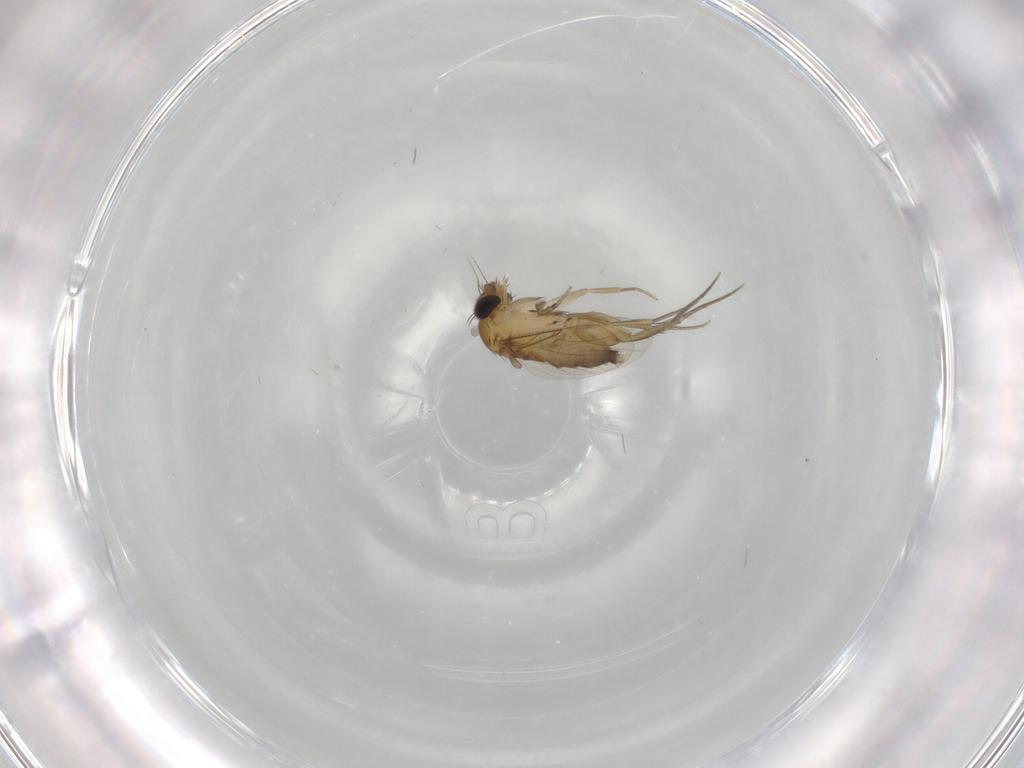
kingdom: Animalia
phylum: Arthropoda
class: Insecta
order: Diptera
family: Phoridae
